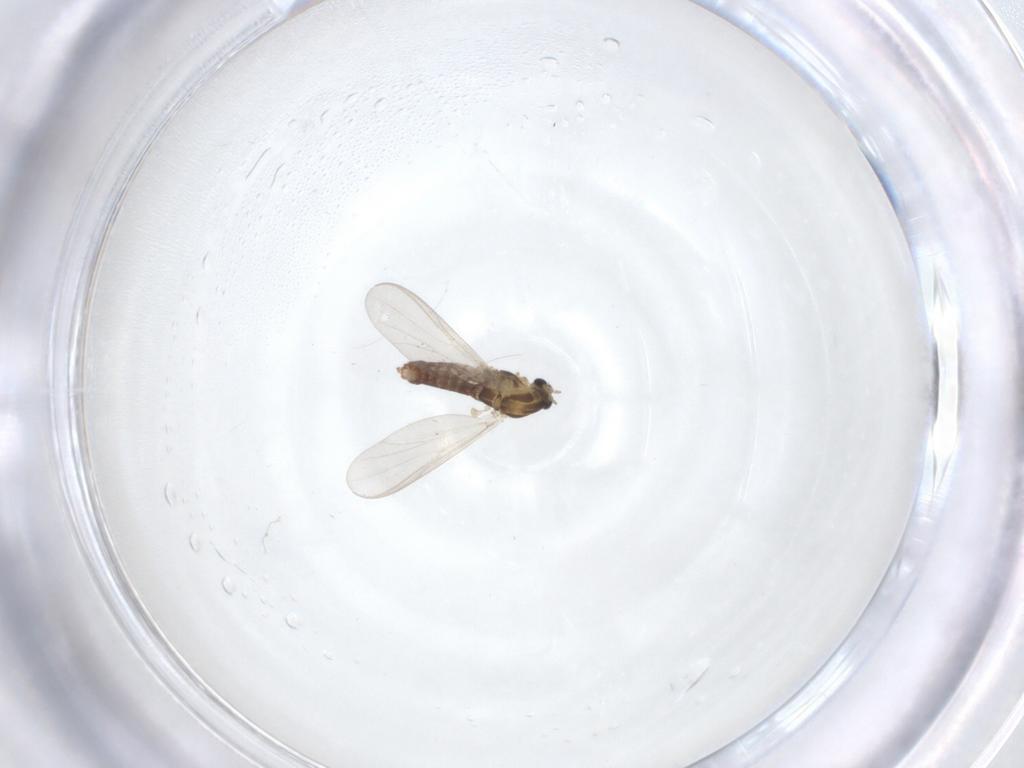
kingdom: Animalia
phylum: Arthropoda
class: Insecta
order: Diptera
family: Chironomidae
